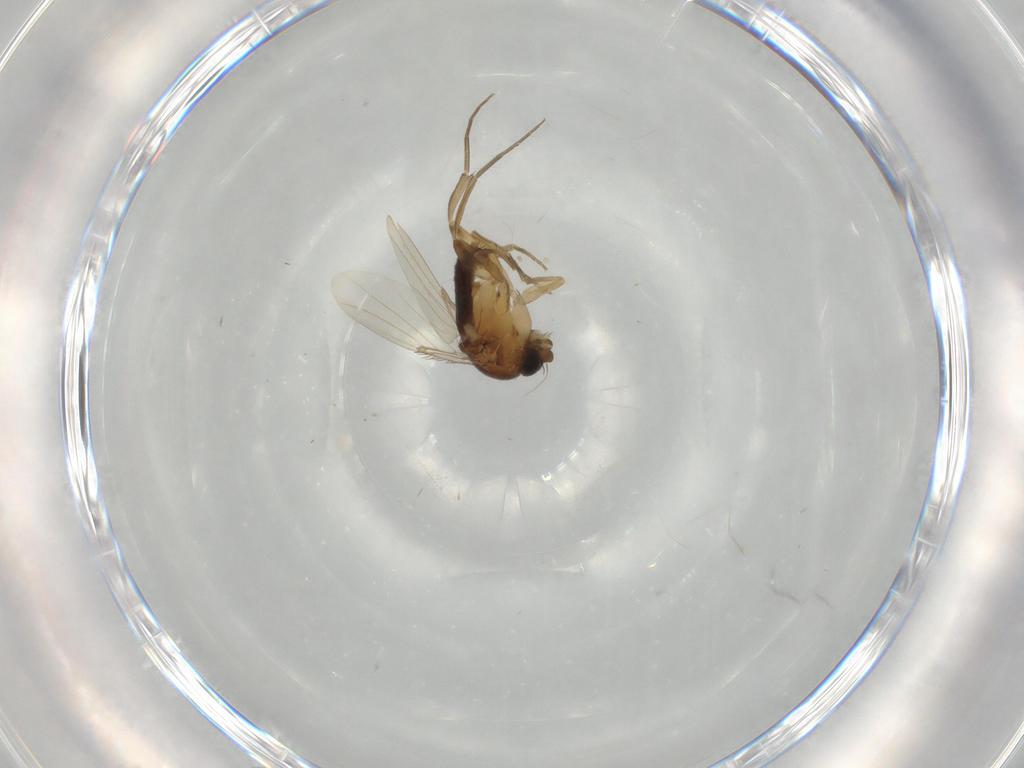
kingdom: Animalia
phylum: Arthropoda
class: Insecta
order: Diptera
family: Phoridae
